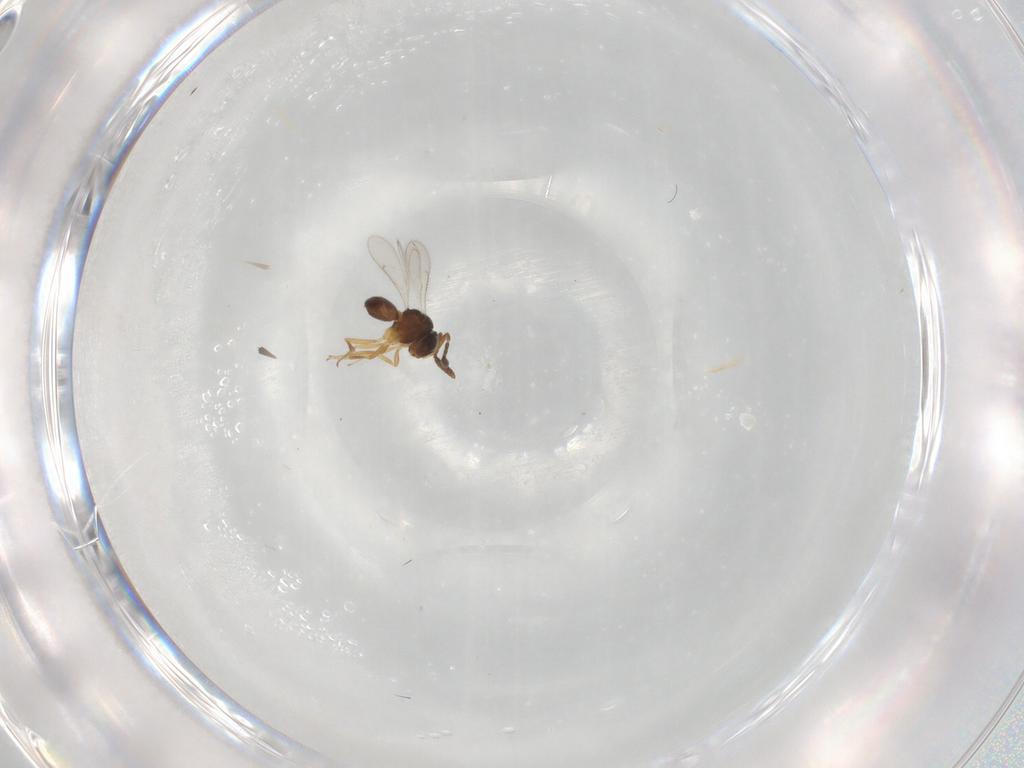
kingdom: Animalia
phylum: Arthropoda
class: Insecta
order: Hymenoptera
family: Scelionidae
